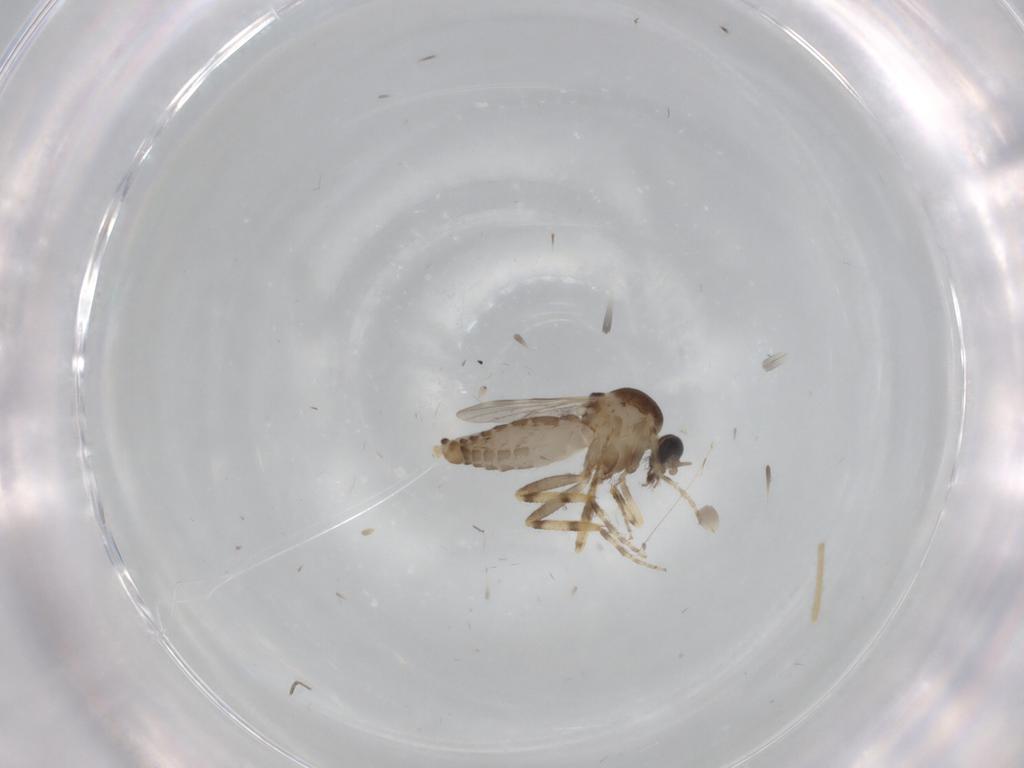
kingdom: Animalia
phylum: Arthropoda
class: Insecta
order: Diptera
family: Ceratopogonidae
